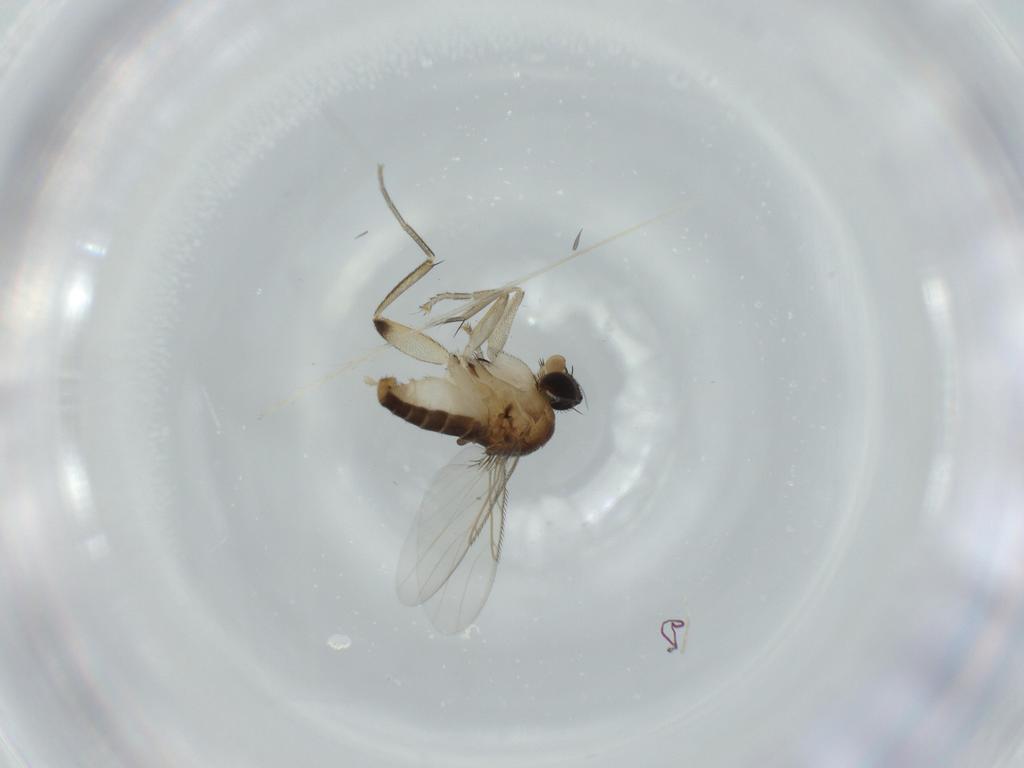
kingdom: Animalia
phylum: Arthropoda
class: Insecta
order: Diptera
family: Phoridae
